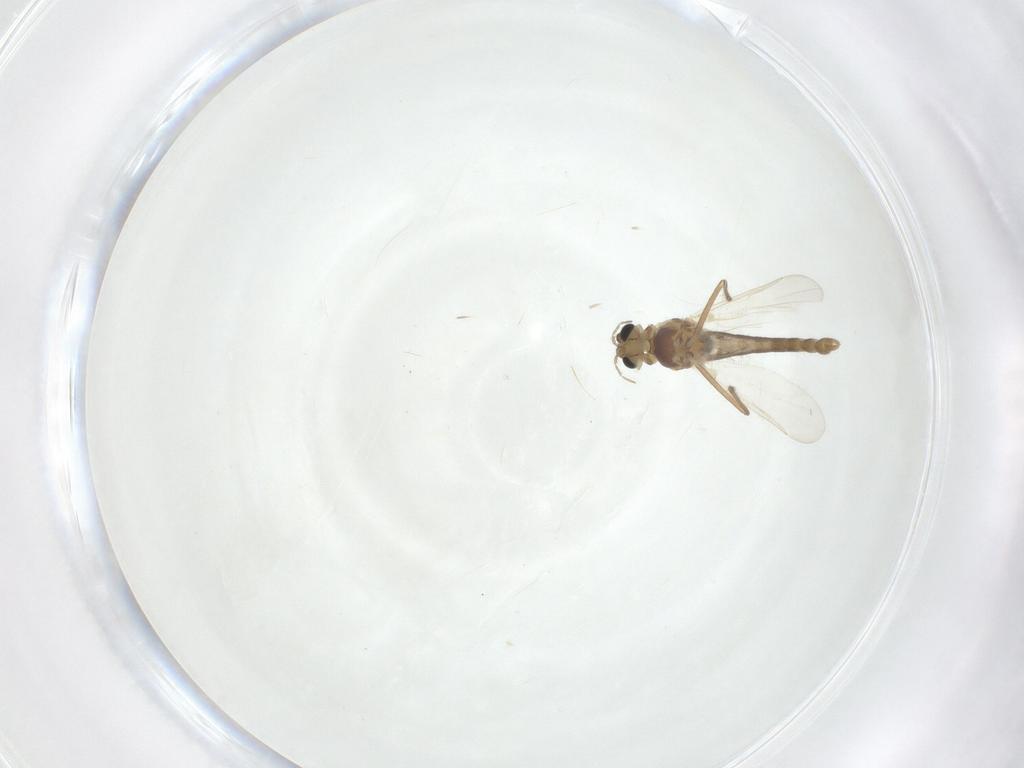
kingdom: Animalia
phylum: Arthropoda
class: Insecta
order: Diptera
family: Chironomidae
